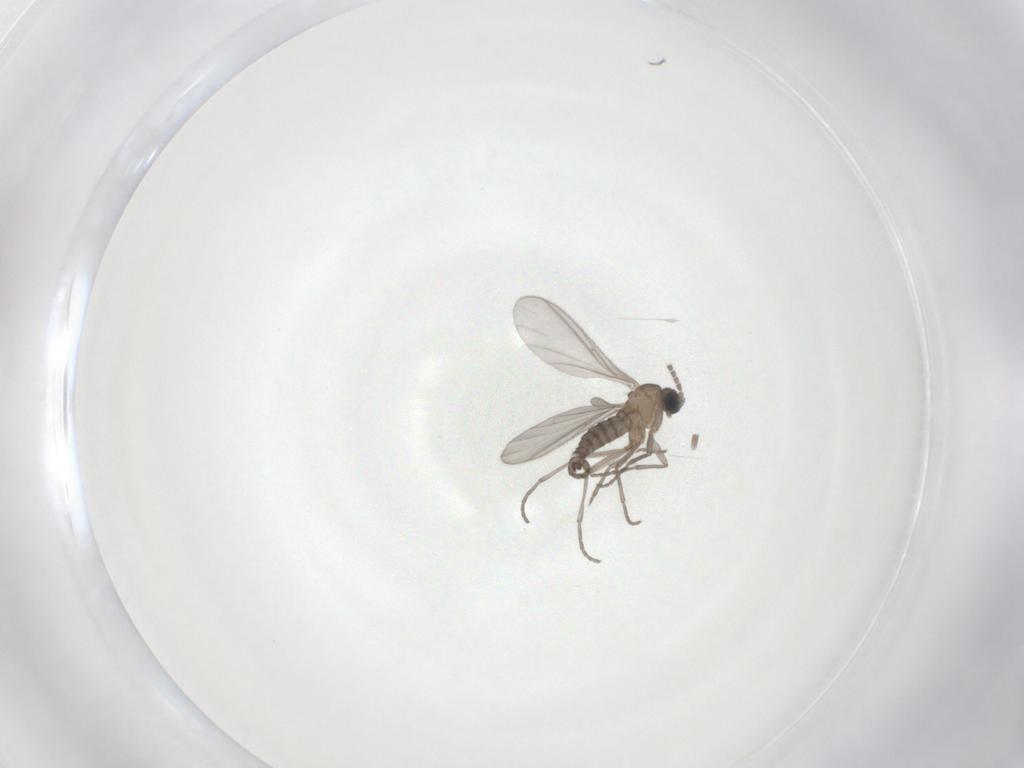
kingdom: Animalia
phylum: Arthropoda
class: Insecta
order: Diptera
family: Sciaridae
